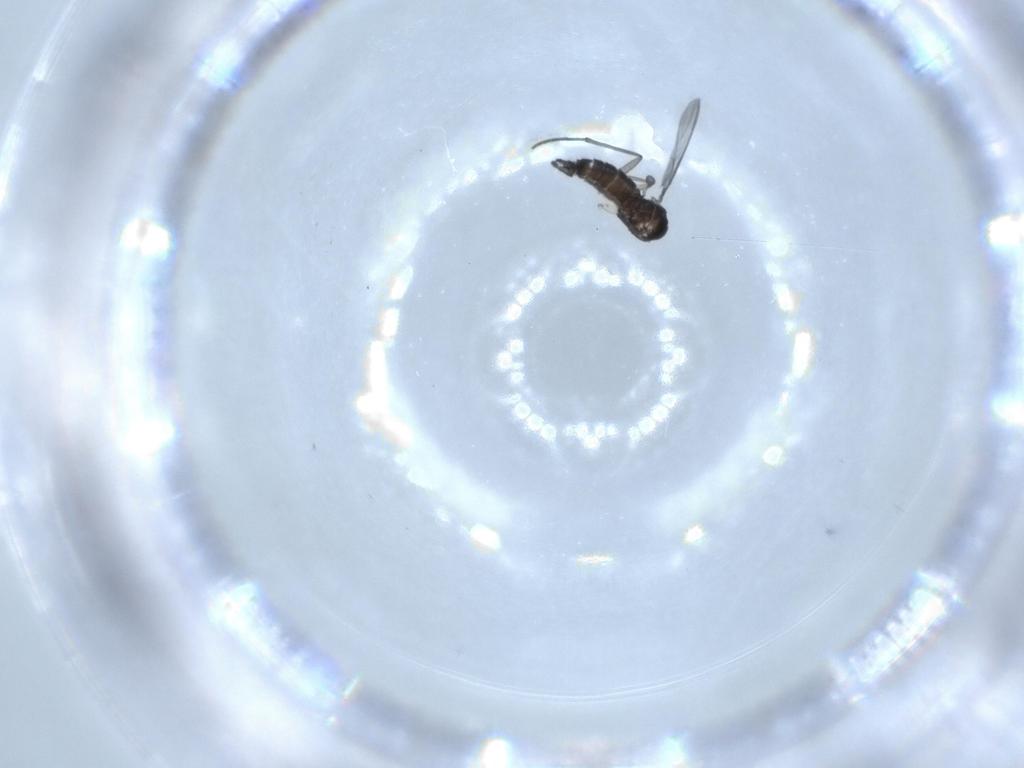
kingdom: Animalia
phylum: Arthropoda
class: Insecta
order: Diptera
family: Sciaridae
